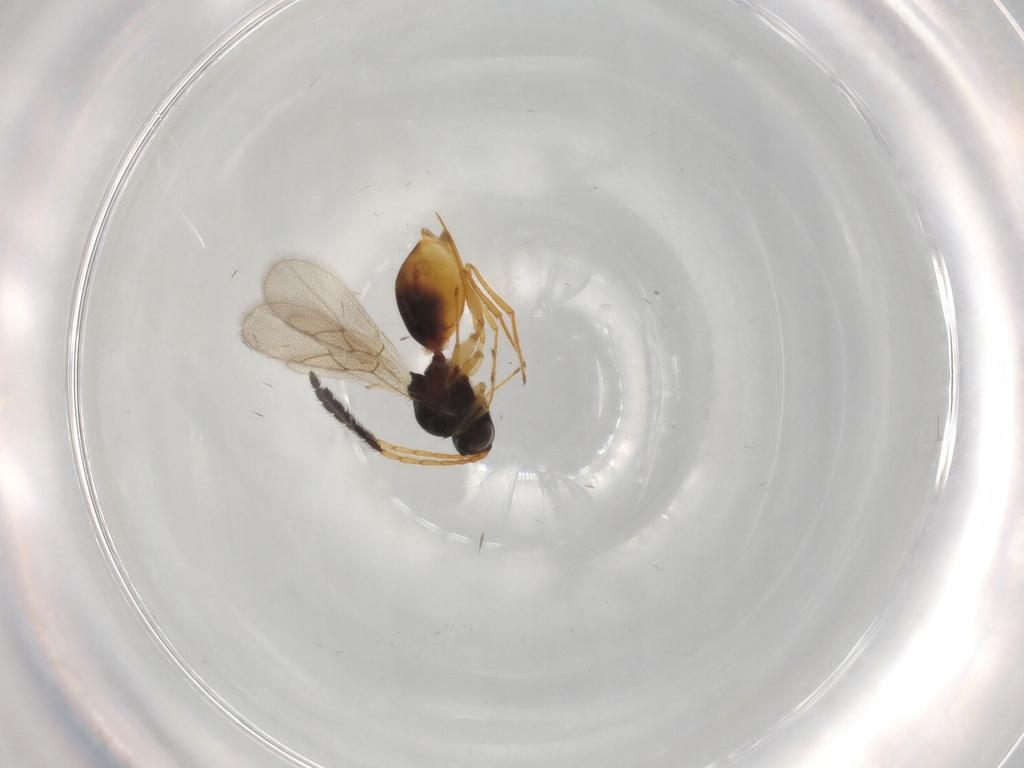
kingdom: Animalia
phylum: Arthropoda
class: Insecta
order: Hymenoptera
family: Figitidae
